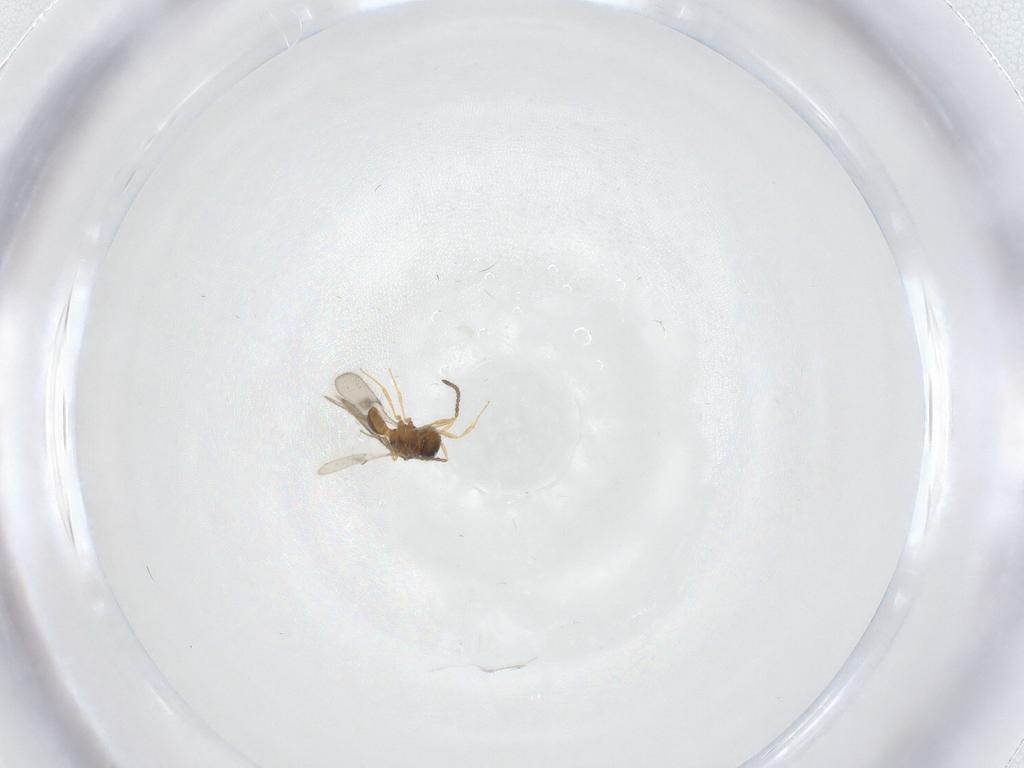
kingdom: Animalia
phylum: Arthropoda
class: Insecta
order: Hymenoptera
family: Scelionidae
